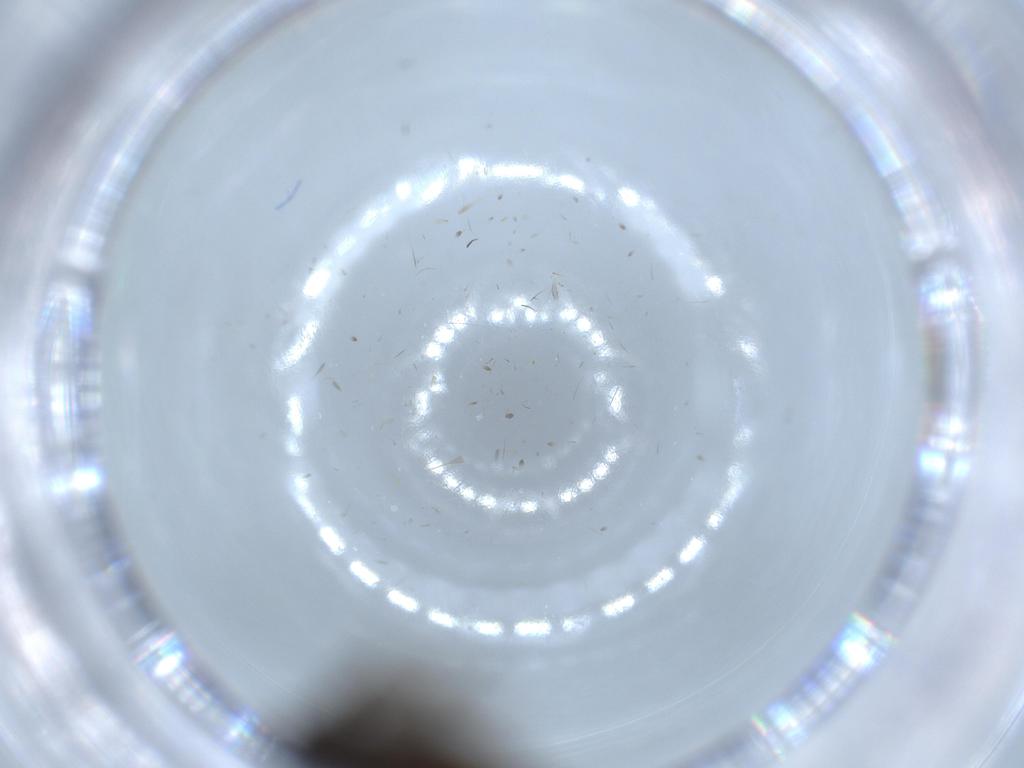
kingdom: Animalia
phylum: Arthropoda
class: Insecta
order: Diptera
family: Sciaridae
